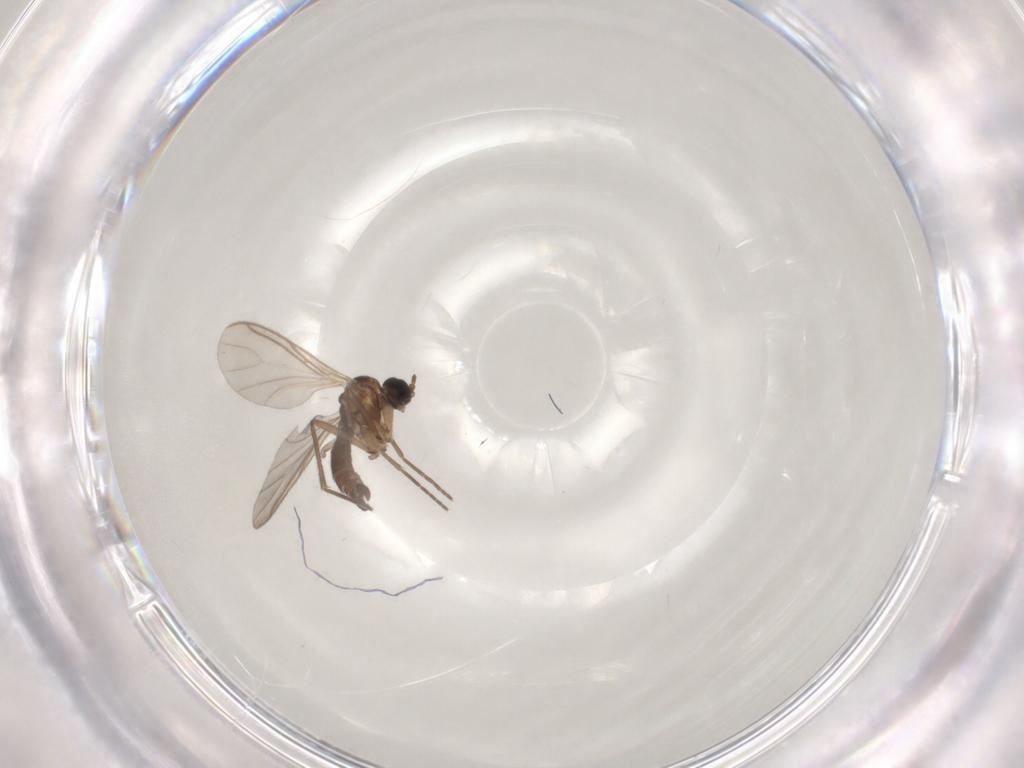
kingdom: Animalia
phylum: Arthropoda
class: Insecta
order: Diptera
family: Sciaridae
